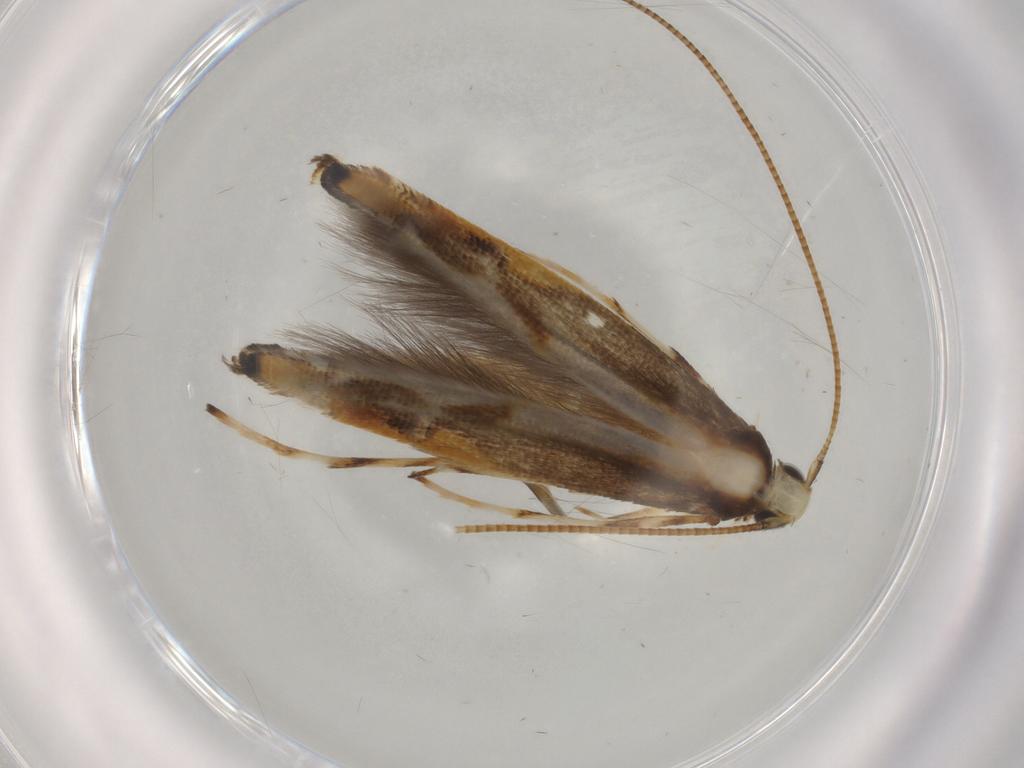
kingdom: Animalia
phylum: Arthropoda
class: Insecta
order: Lepidoptera
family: Gracillariidae
